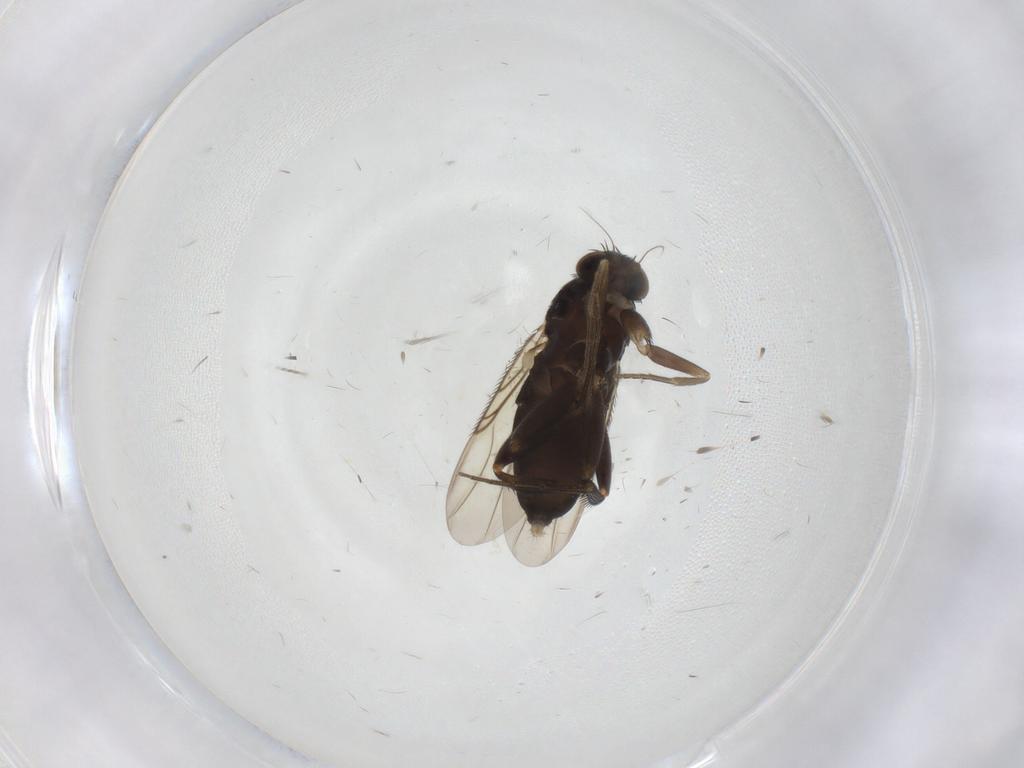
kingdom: Animalia
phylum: Arthropoda
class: Insecta
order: Diptera
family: Phoridae
